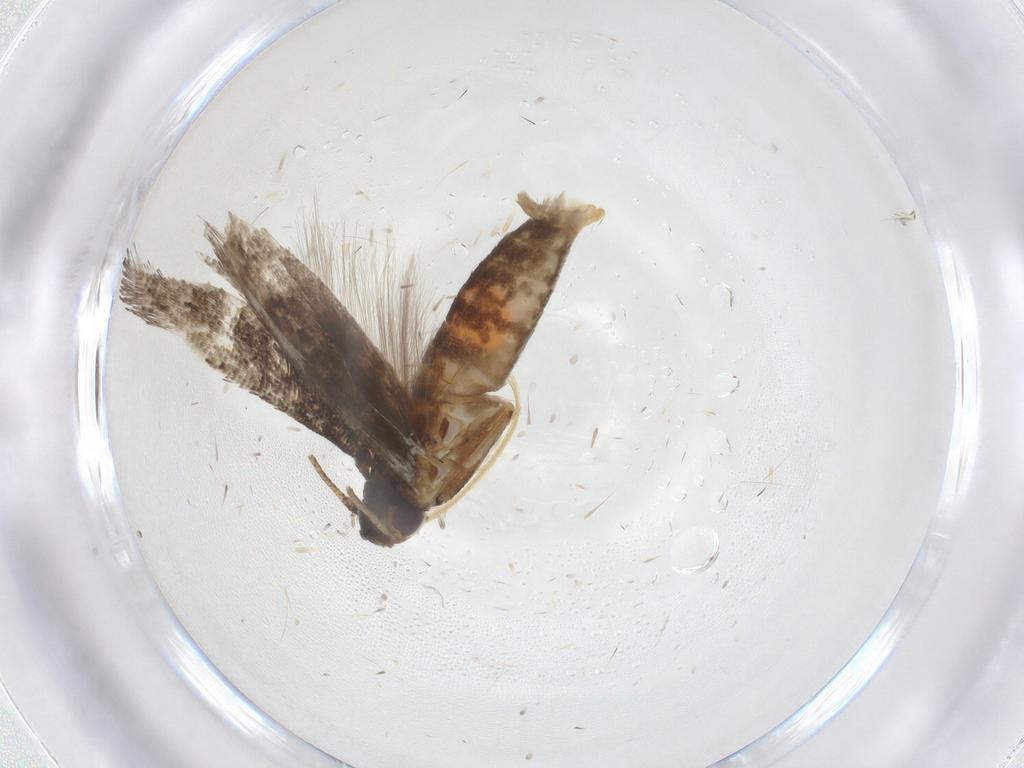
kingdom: Animalia
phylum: Arthropoda
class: Insecta
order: Lepidoptera
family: Gelechiidae
